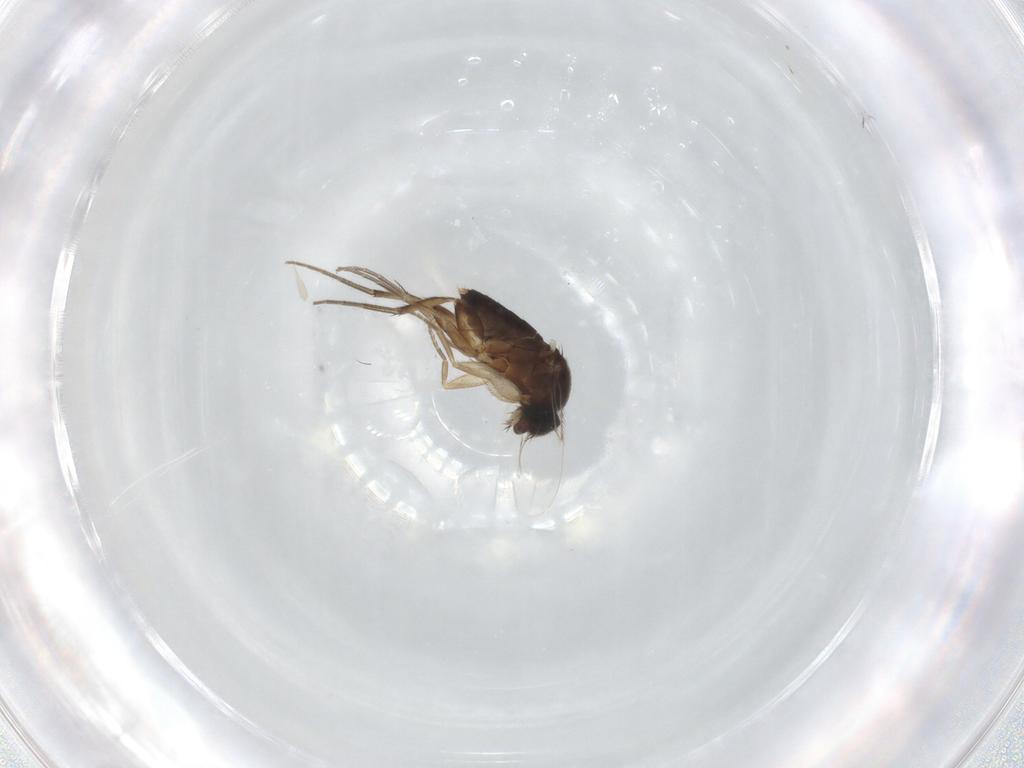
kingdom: Animalia
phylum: Arthropoda
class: Insecta
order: Diptera
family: Phoridae
